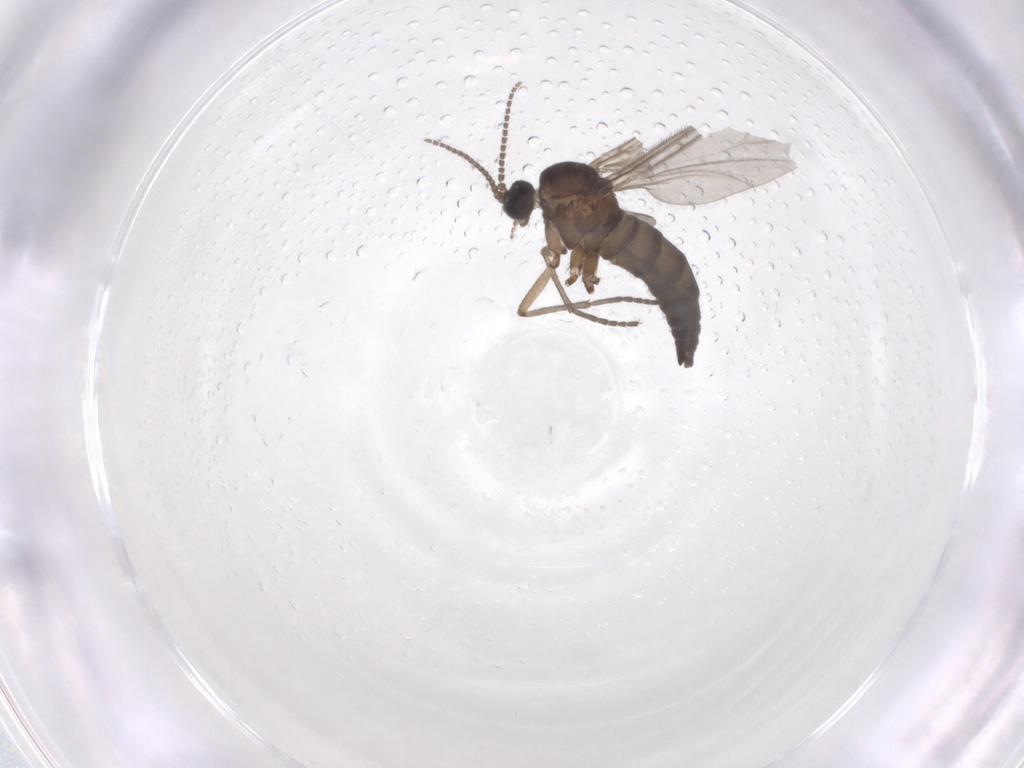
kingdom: Animalia
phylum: Arthropoda
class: Insecta
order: Diptera
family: Sciaridae
